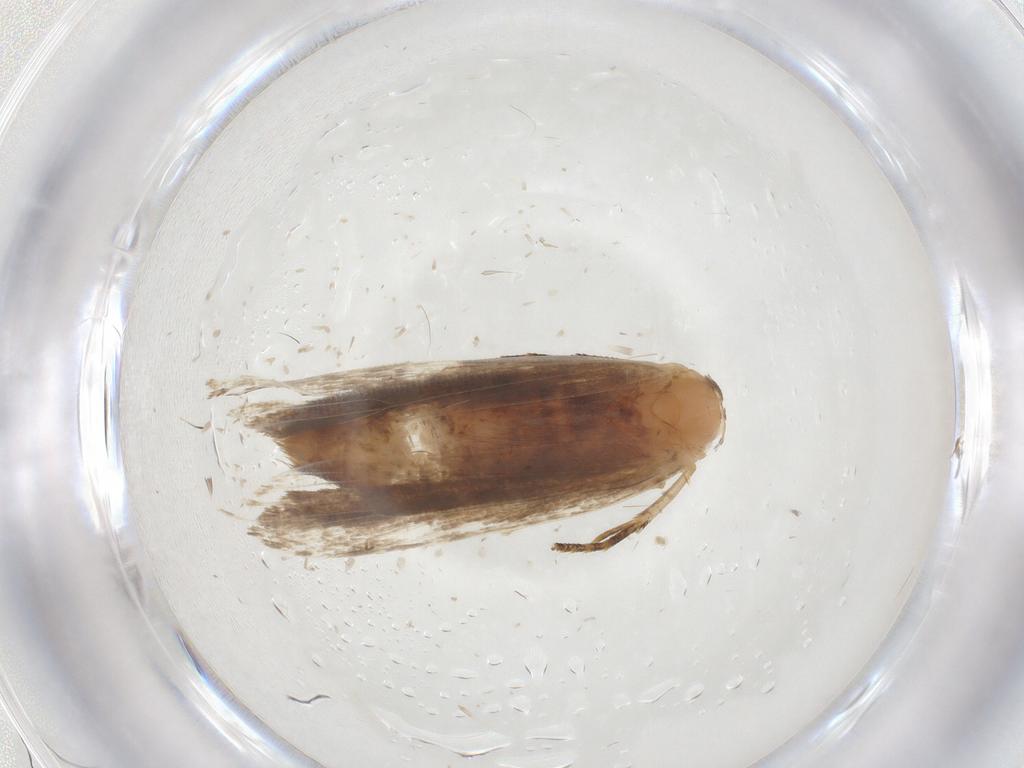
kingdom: Animalia
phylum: Arthropoda
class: Insecta
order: Lepidoptera
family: Gelechiidae
